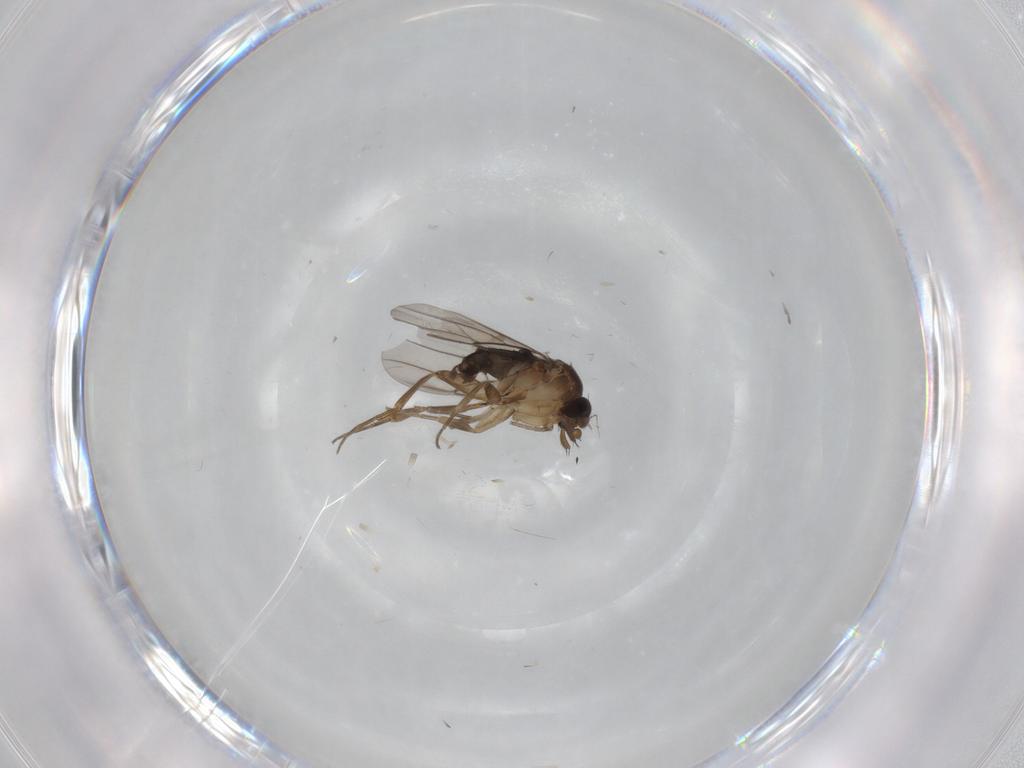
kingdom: Animalia
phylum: Arthropoda
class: Insecta
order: Diptera
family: Phoridae
